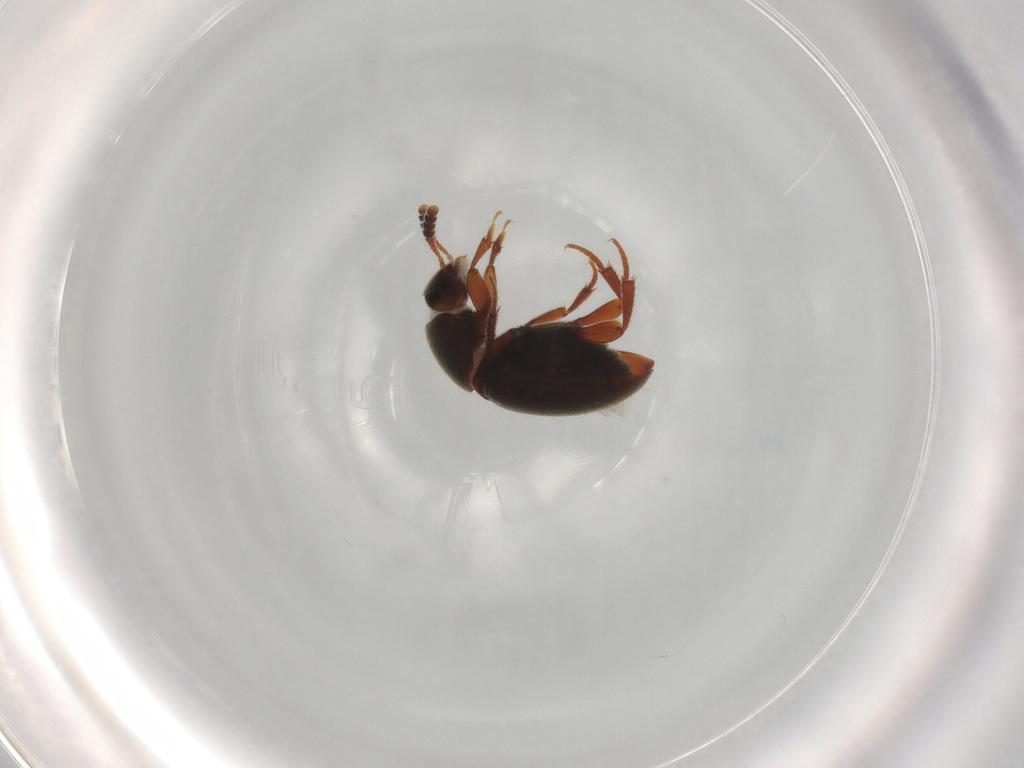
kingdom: Animalia
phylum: Arthropoda
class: Insecta
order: Coleoptera
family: Leiodidae
